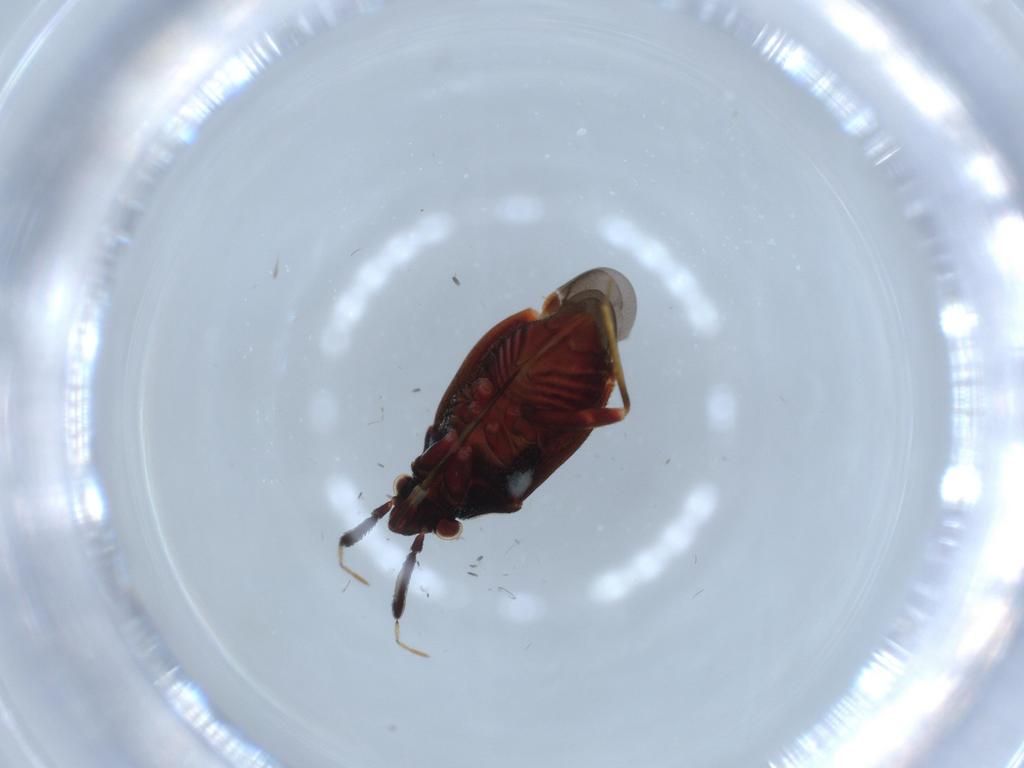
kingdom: Animalia
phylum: Arthropoda
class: Insecta
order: Hemiptera
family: Miridae
